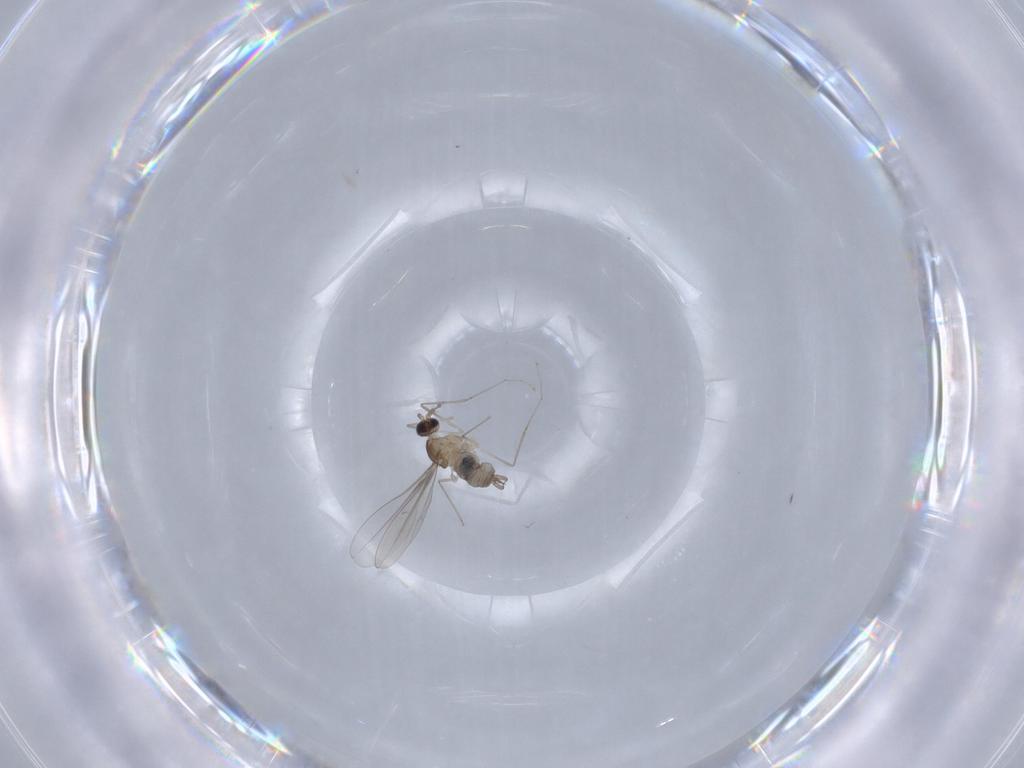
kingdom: Animalia
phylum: Arthropoda
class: Insecta
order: Diptera
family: Cecidomyiidae
